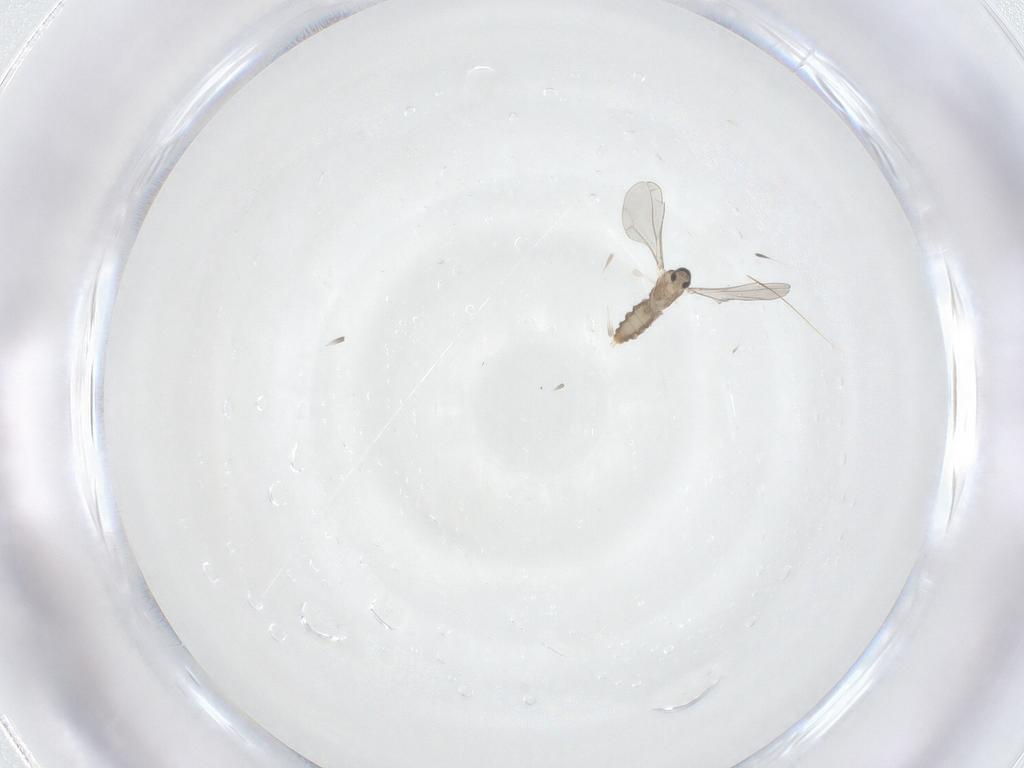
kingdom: Animalia
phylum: Arthropoda
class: Insecta
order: Diptera
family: Cecidomyiidae
